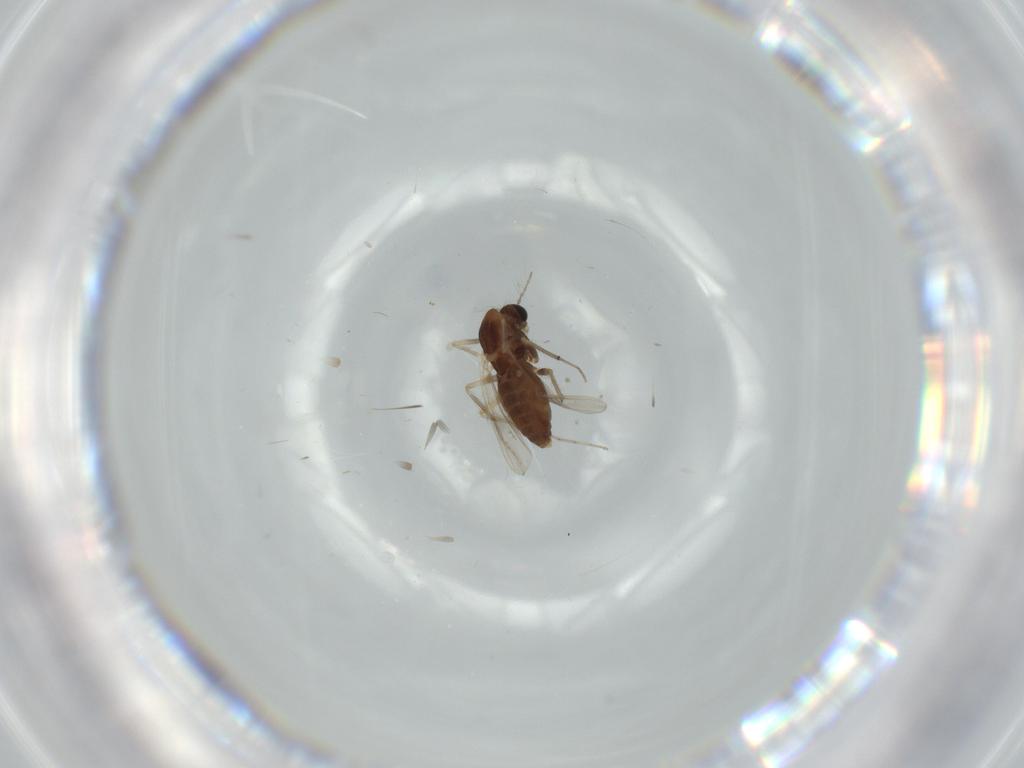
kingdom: Animalia
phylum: Arthropoda
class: Insecta
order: Diptera
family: Chironomidae
